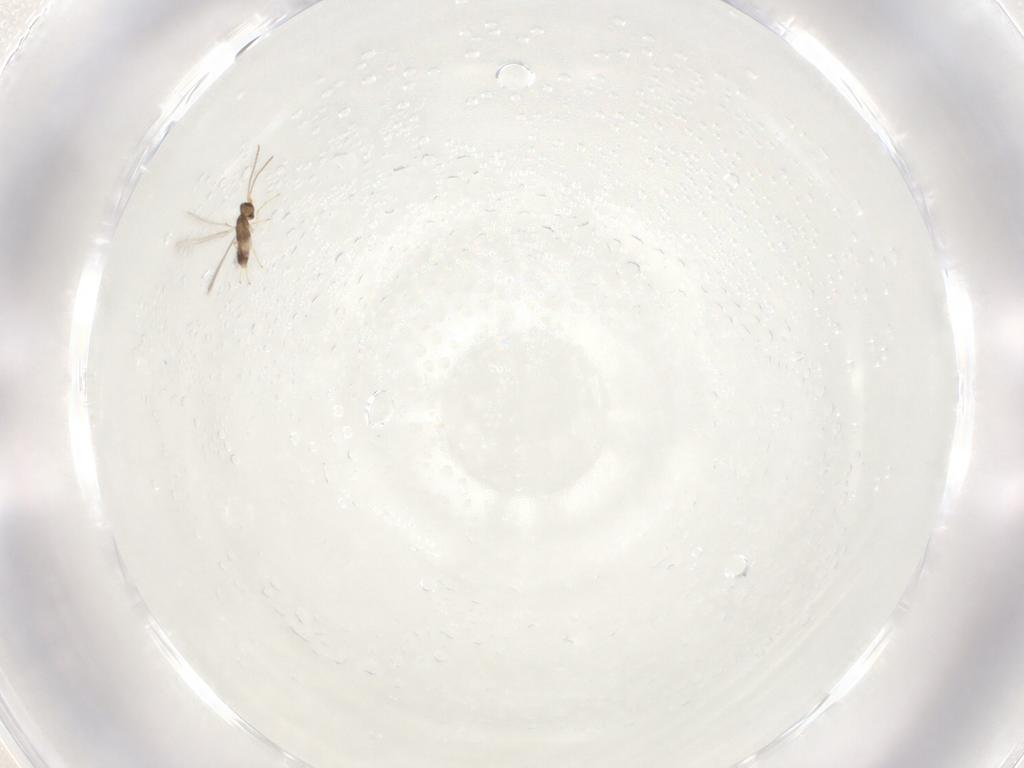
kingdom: Animalia
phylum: Arthropoda
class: Insecta
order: Hymenoptera
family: Mymaridae
